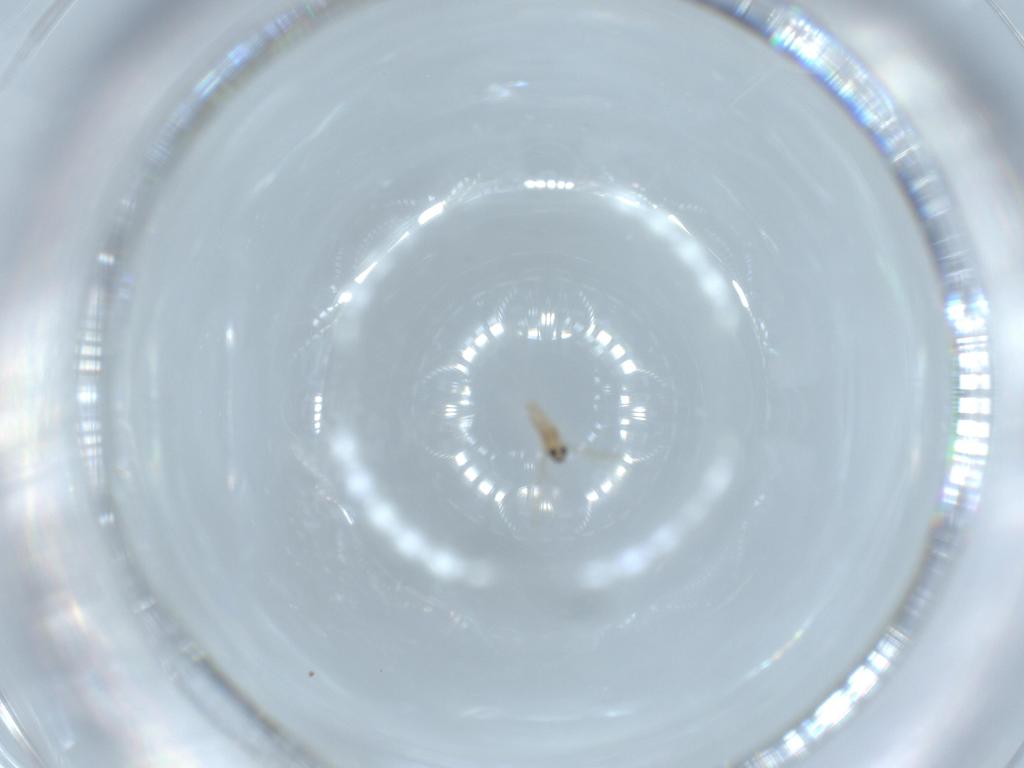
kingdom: Animalia
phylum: Arthropoda
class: Insecta
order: Diptera
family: Cecidomyiidae
